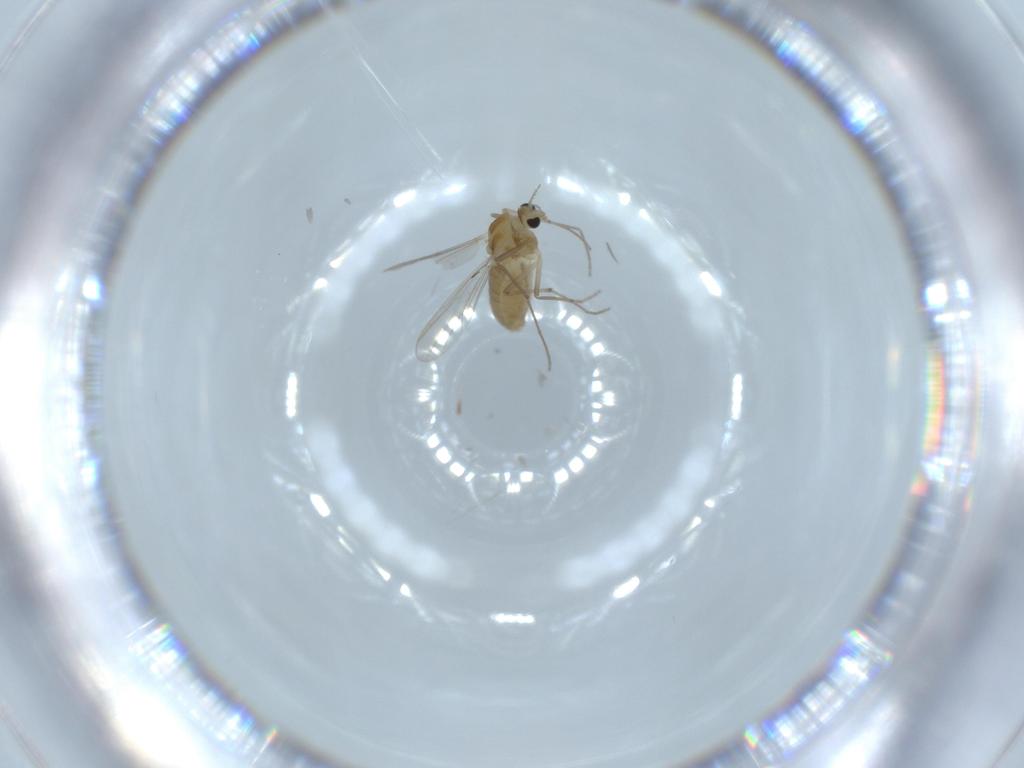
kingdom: Animalia
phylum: Arthropoda
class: Insecta
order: Diptera
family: Chironomidae
